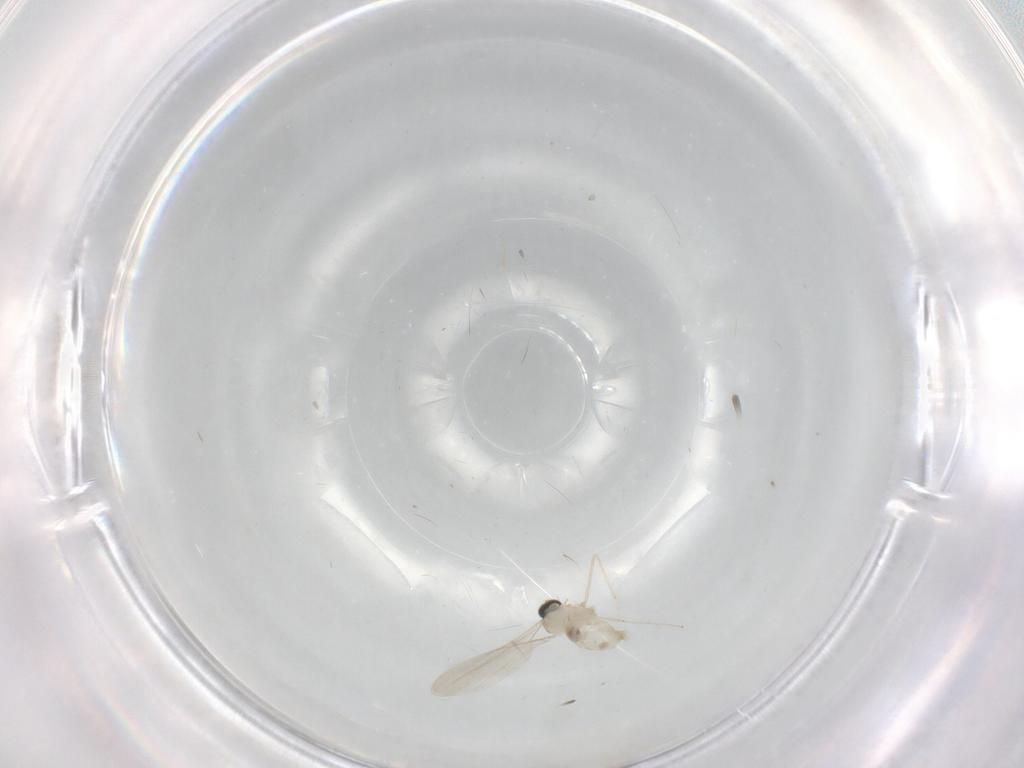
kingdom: Animalia
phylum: Arthropoda
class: Insecta
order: Diptera
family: Cecidomyiidae
